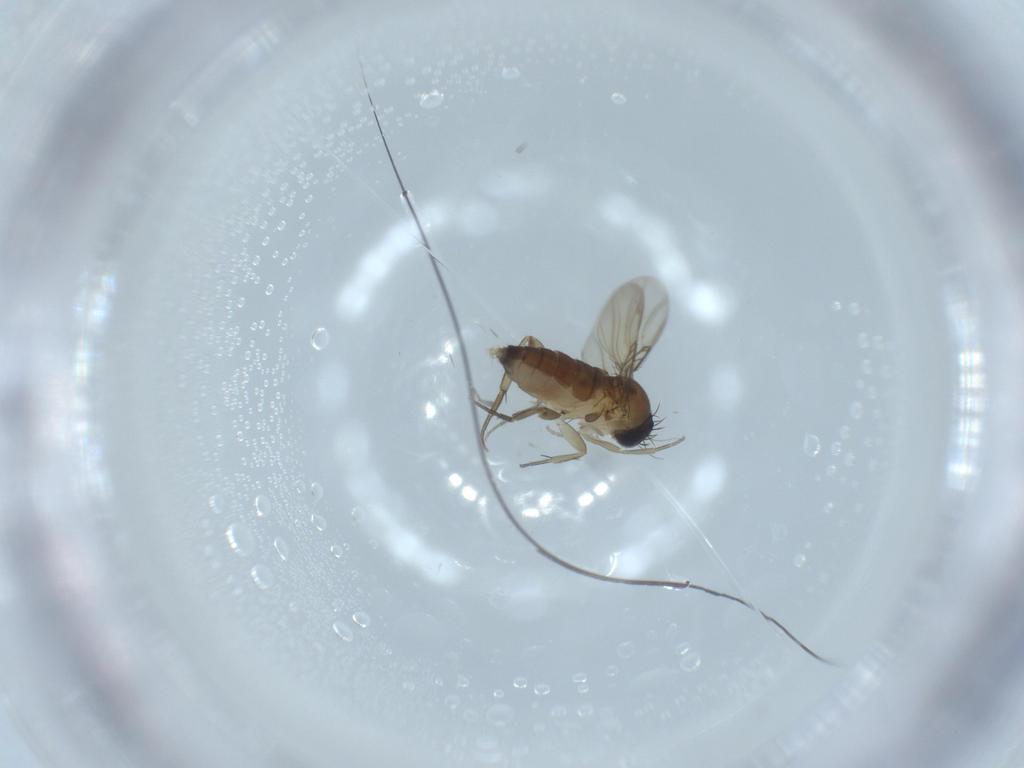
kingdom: Animalia
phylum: Arthropoda
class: Insecta
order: Diptera
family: Phoridae
